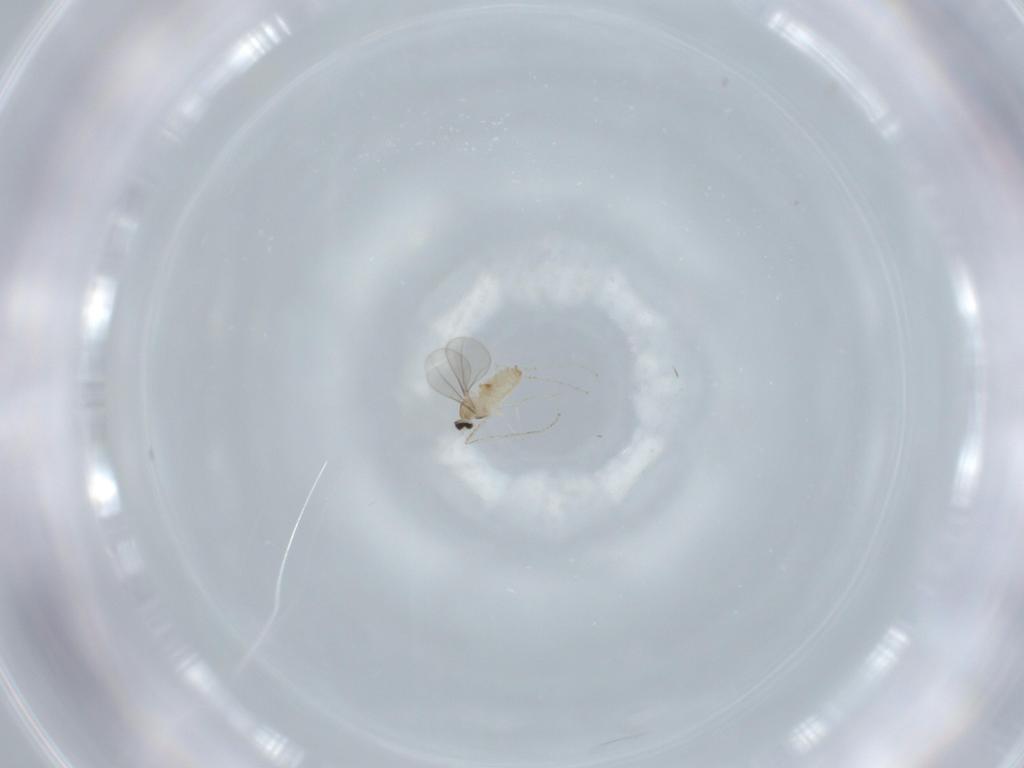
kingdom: Animalia
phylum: Arthropoda
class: Insecta
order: Diptera
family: Cecidomyiidae
